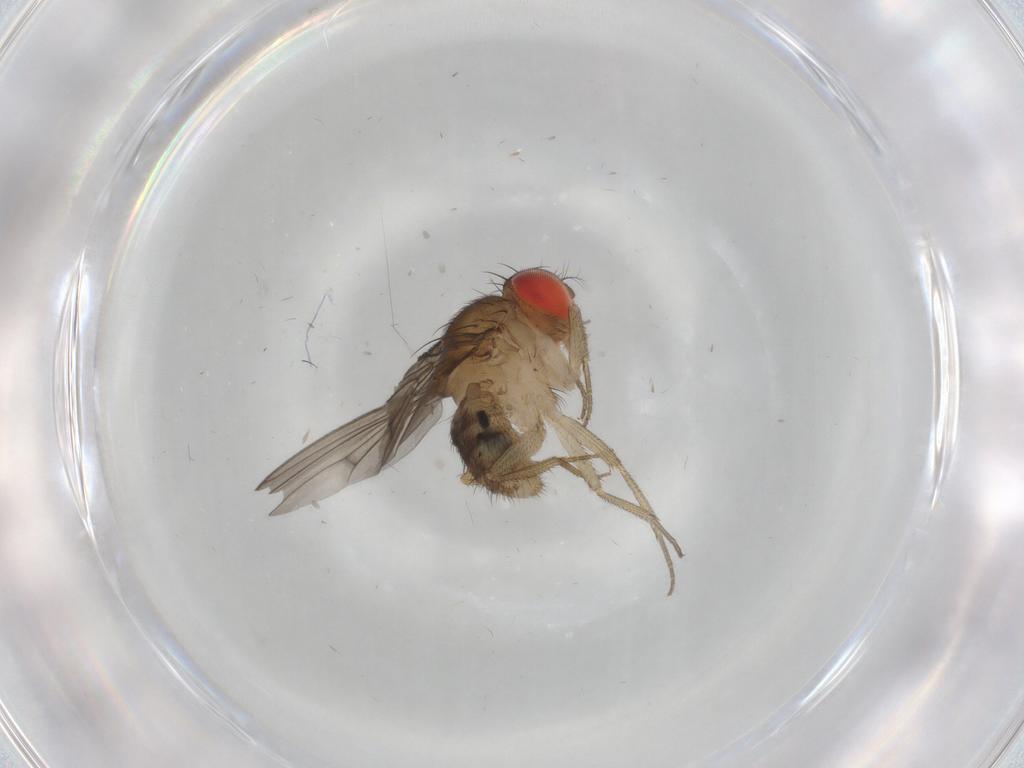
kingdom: Animalia
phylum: Arthropoda
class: Insecta
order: Diptera
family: Drosophilidae
